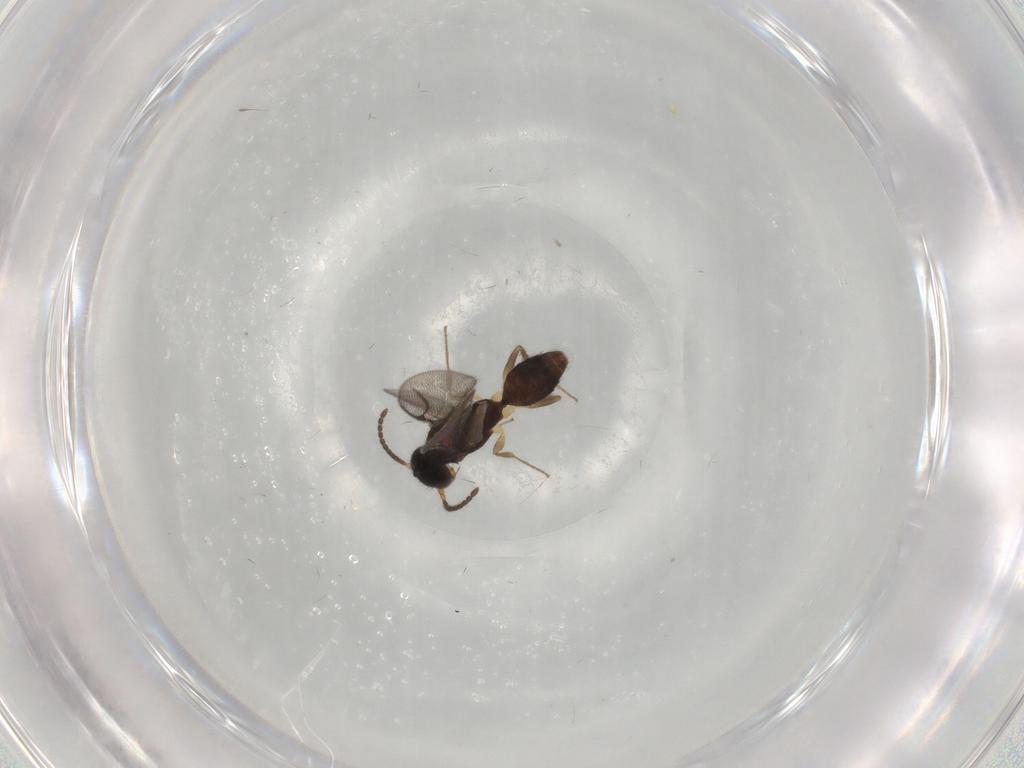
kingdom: Animalia
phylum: Arthropoda
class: Insecta
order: Hymenoptera
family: Bethylidae
